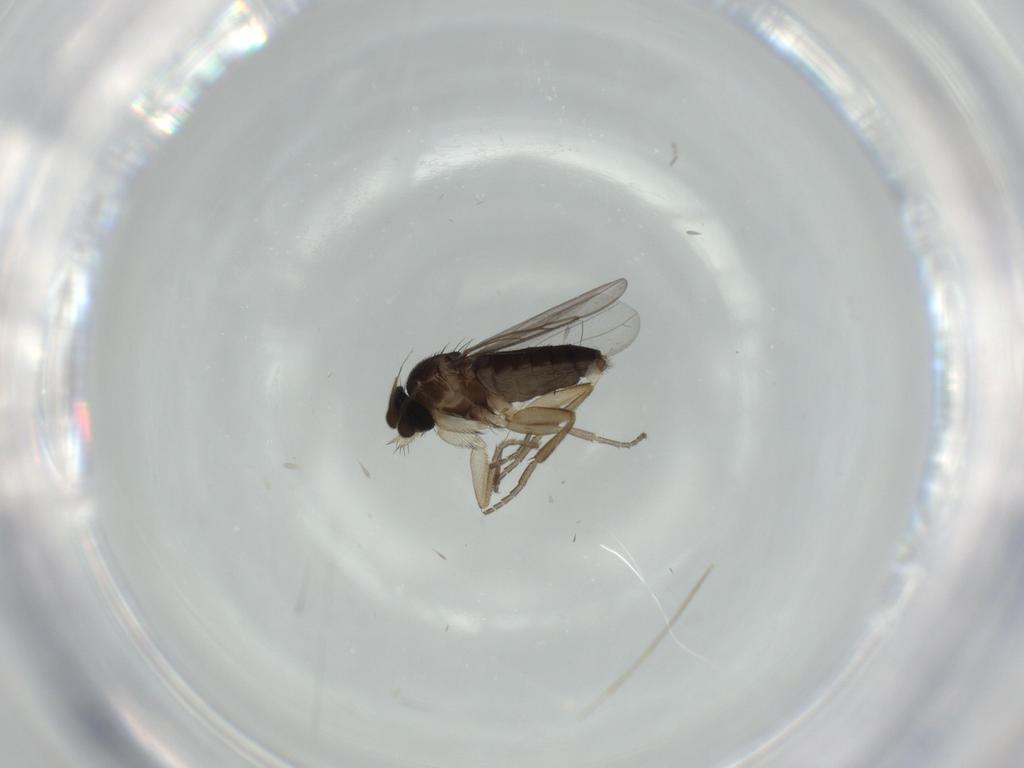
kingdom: Animalia
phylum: Arthropoda
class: Insecta
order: Diptera
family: Chironomidae
